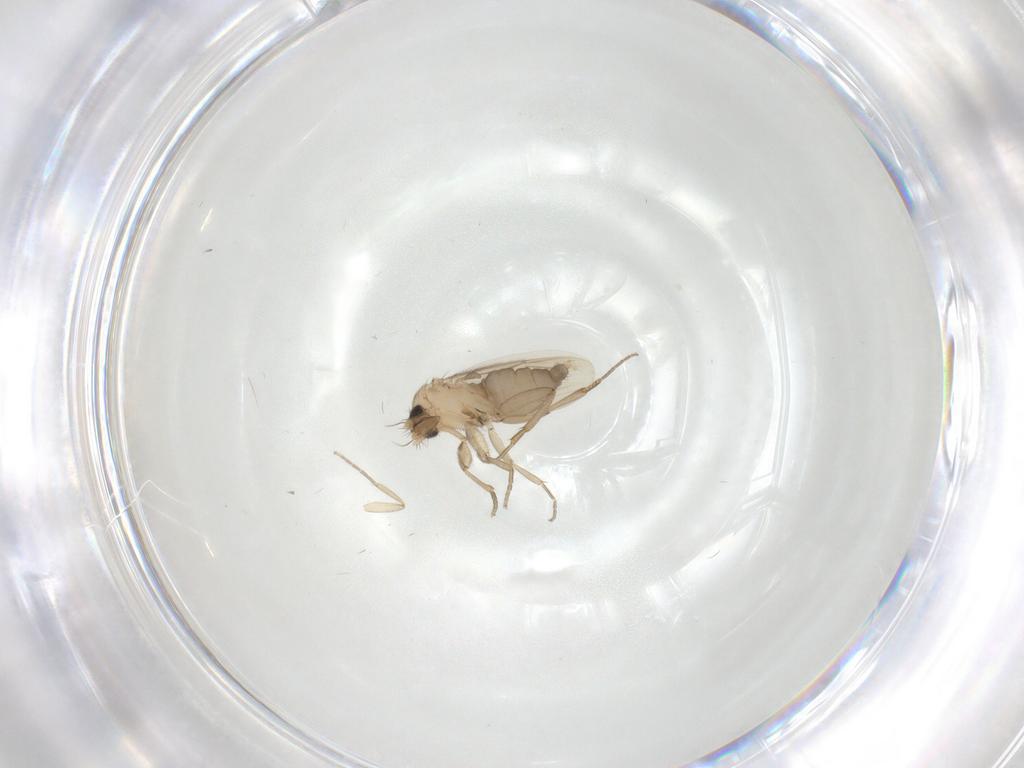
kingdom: Animalia
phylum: Arthropoda
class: Insecta
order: Diptera
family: Phoridae
